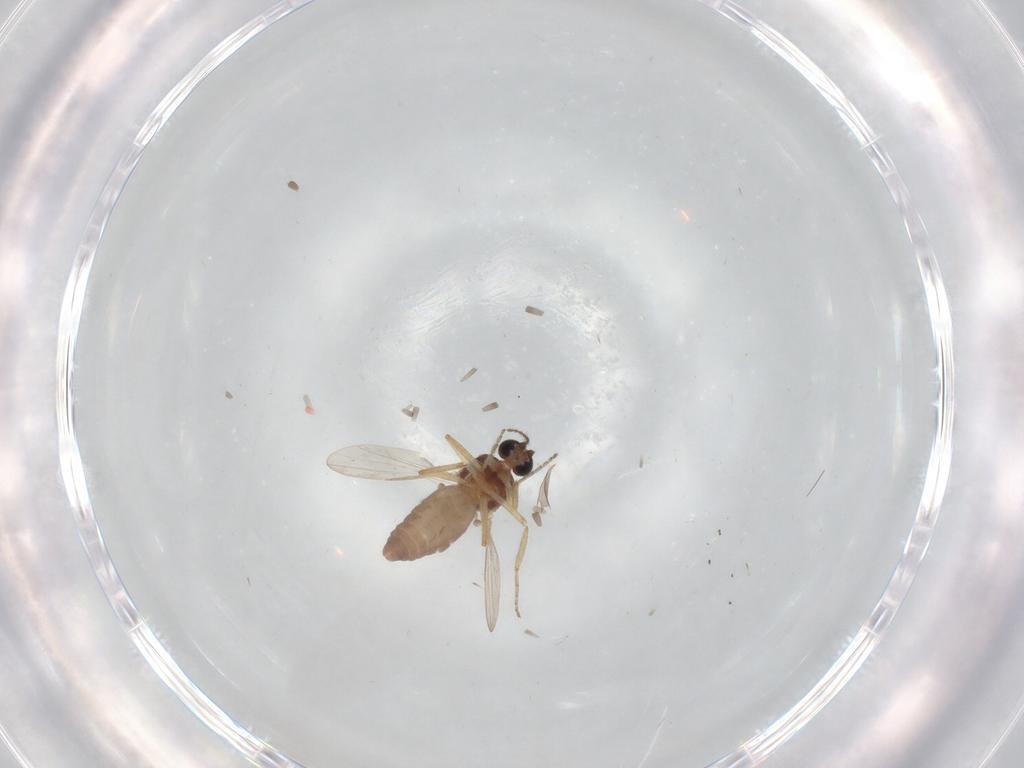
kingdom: Animalia
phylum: Arthropoda
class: Insecta
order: Diptera
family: Ceratopogonidae
